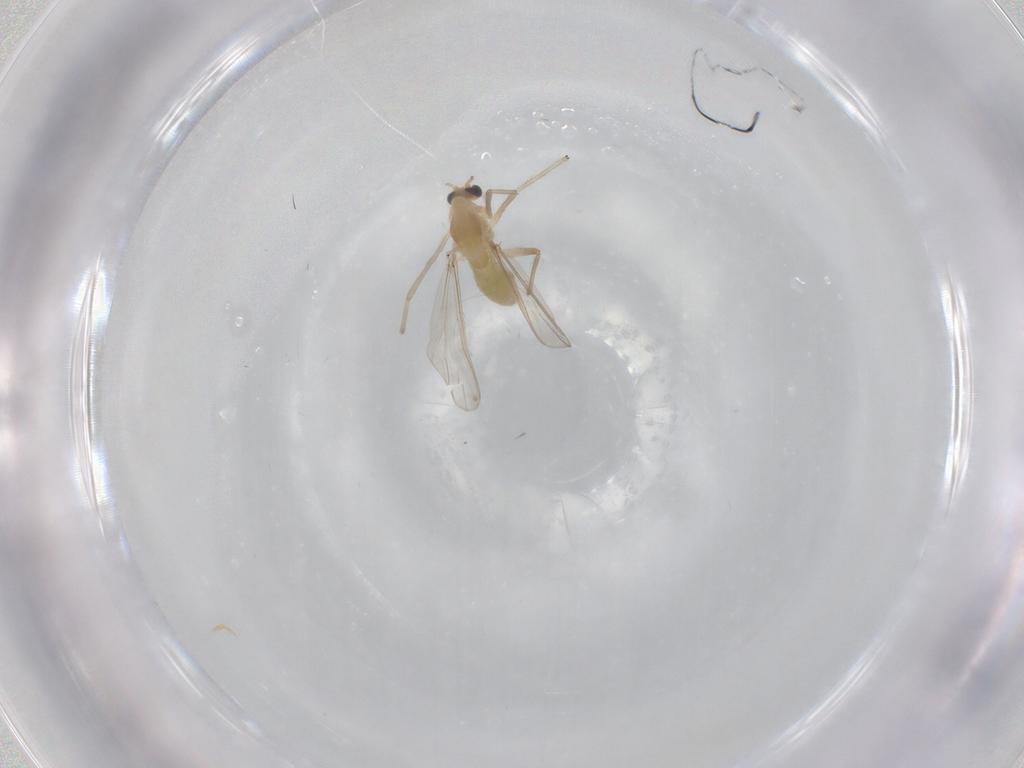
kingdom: Animalia
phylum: Arthropoda
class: Insecta
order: Diptera
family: Chironomidae
